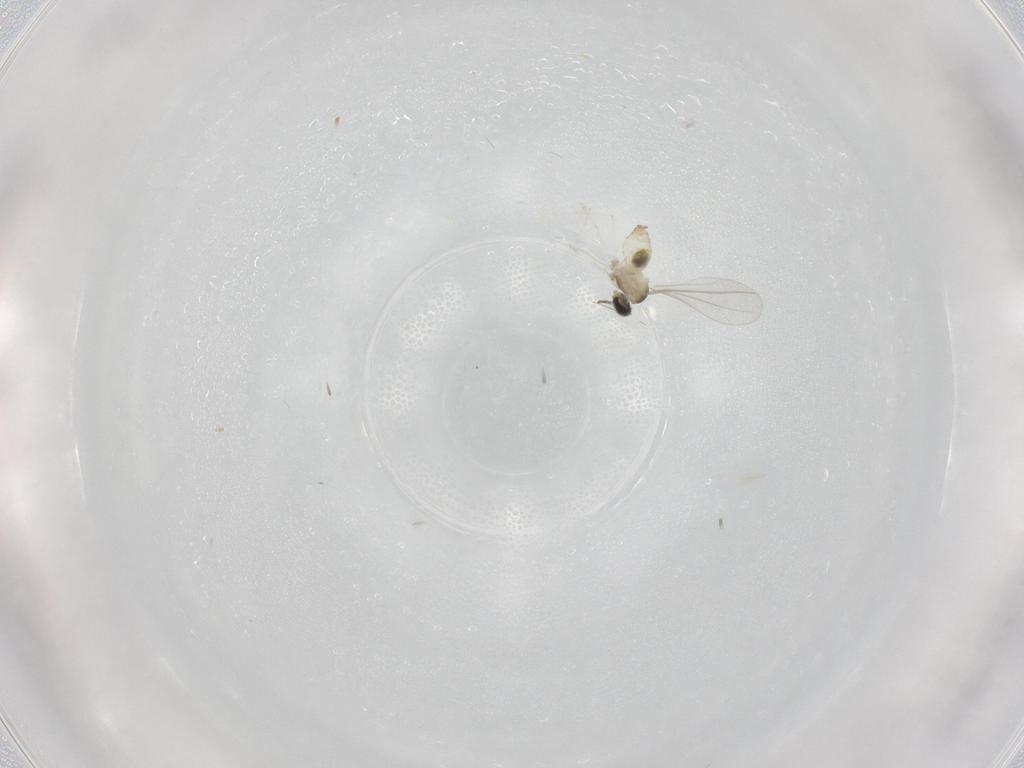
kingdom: Animalia
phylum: Arthropoda
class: Insecta
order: Diptera
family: Cecidomyiidae
